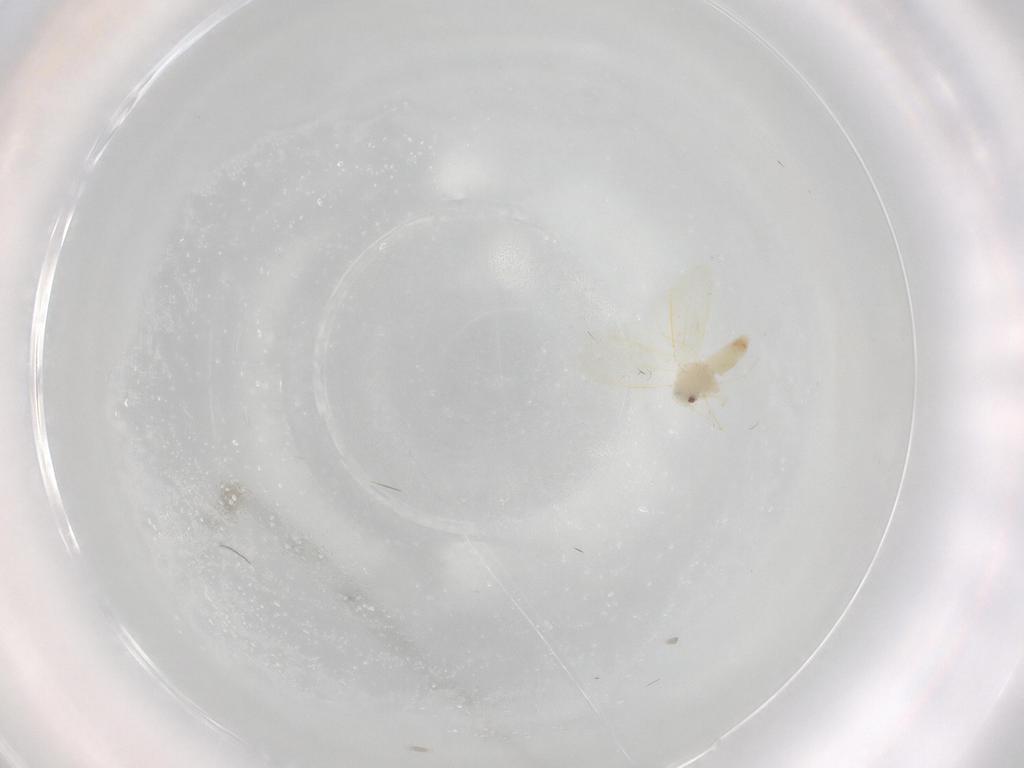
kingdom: Animalia
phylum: Arthropoda
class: Insecta
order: Hemiptera
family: Aleyrodidae
